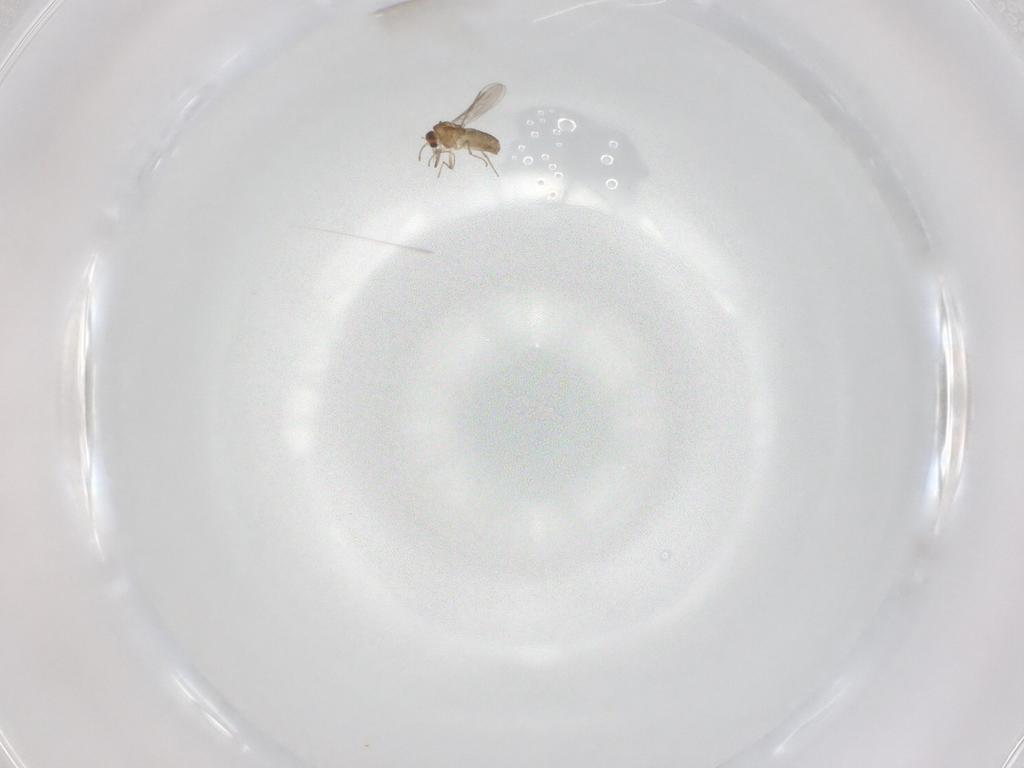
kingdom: Animalia
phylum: Arthropoda
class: Insecta
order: Diptera
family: Chironomidae
